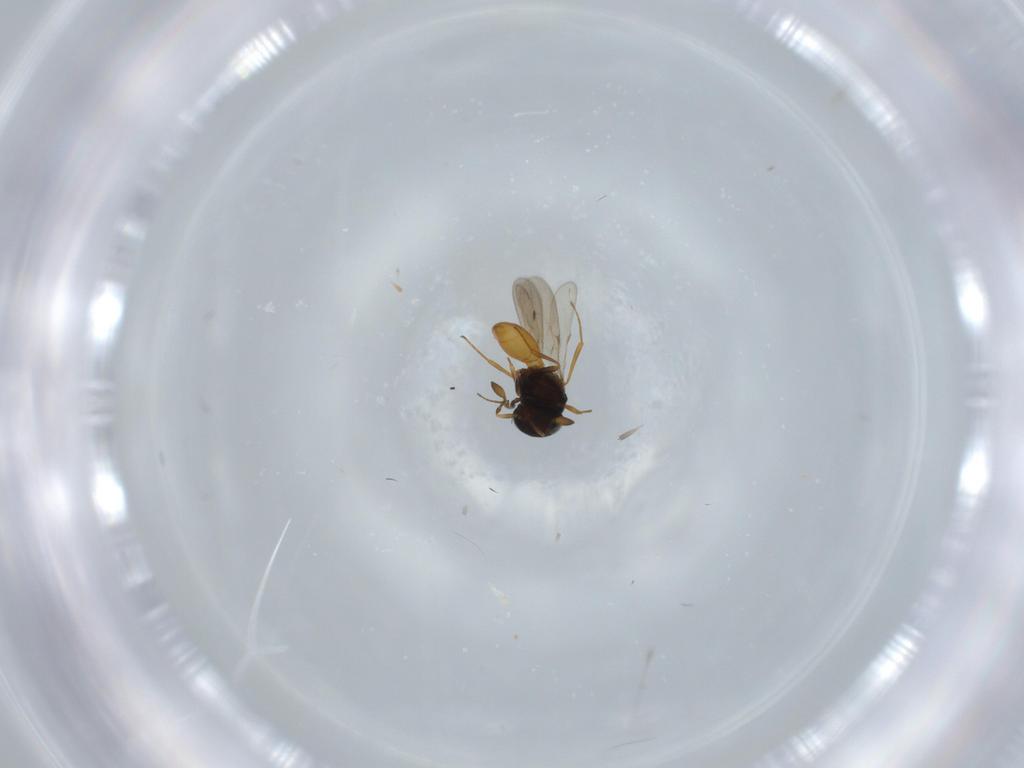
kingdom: Animalia
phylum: Arthropoda
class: Insecta
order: Hymenoptera
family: Scelionidae
